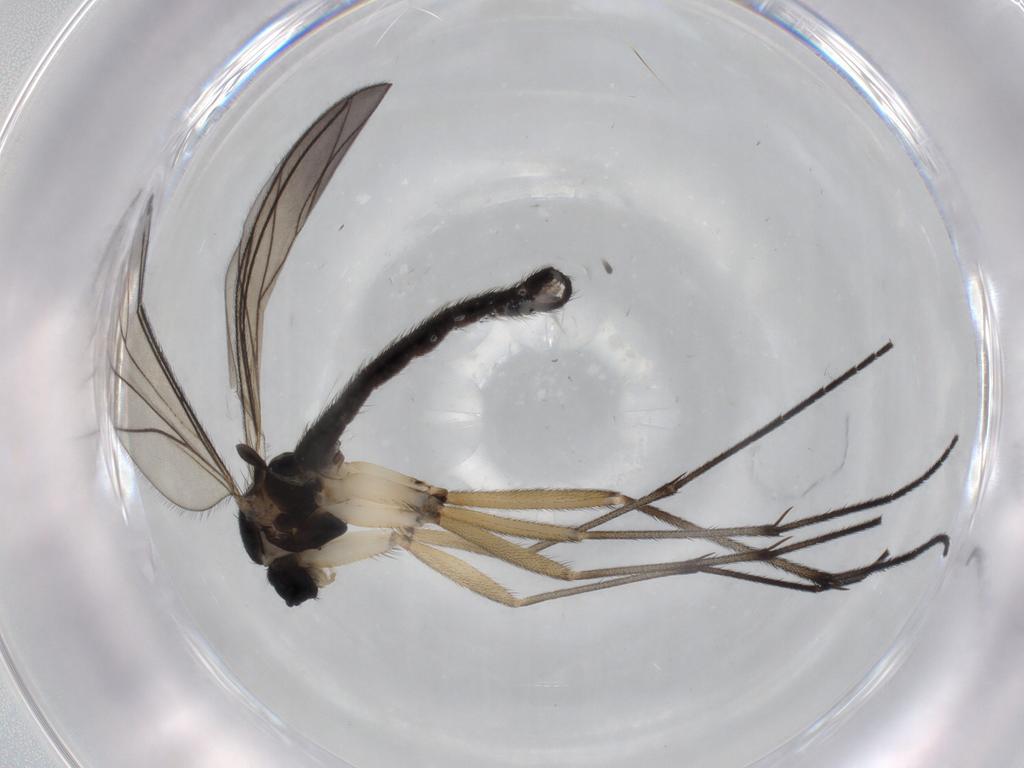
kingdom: Animalia
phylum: Arthropoda
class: Insecta
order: Diptera
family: Sciaridae
